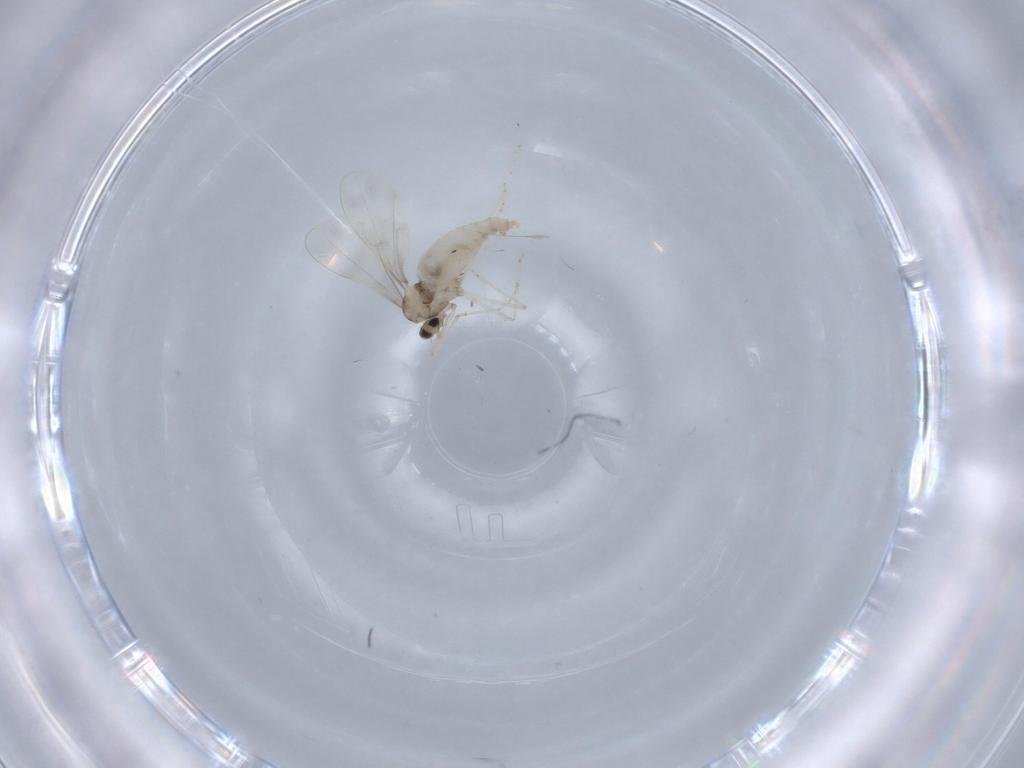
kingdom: Animalia
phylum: Arthropoda
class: Insecta
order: Diptera
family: Cecidomyiidae
